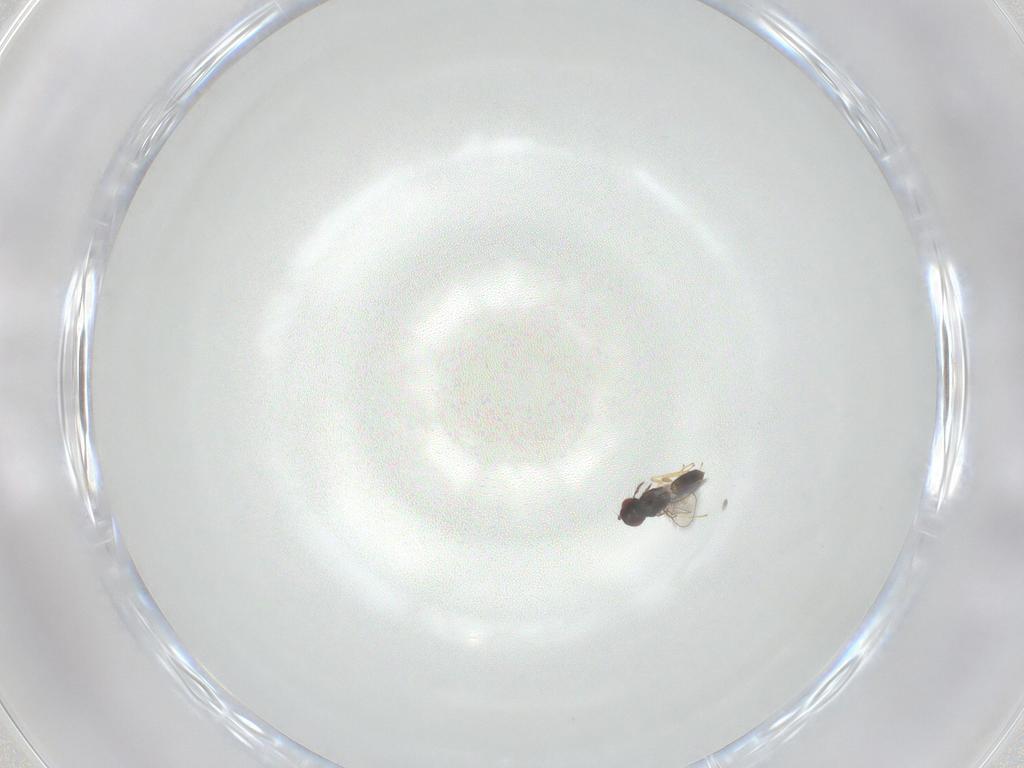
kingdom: Animalia
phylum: Arthropoda
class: Insecta
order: Hymenoptera
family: Eulophidae
